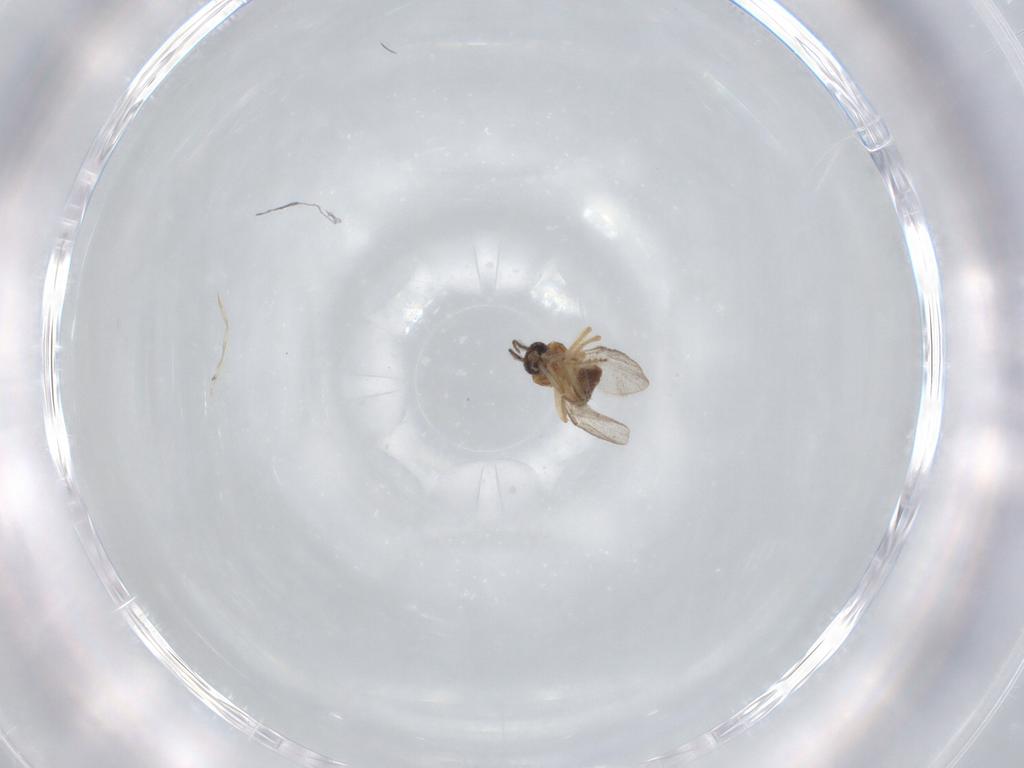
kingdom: Animalia
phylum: Arthropoda
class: Insecta
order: Diptera
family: Ceratopogonidae
